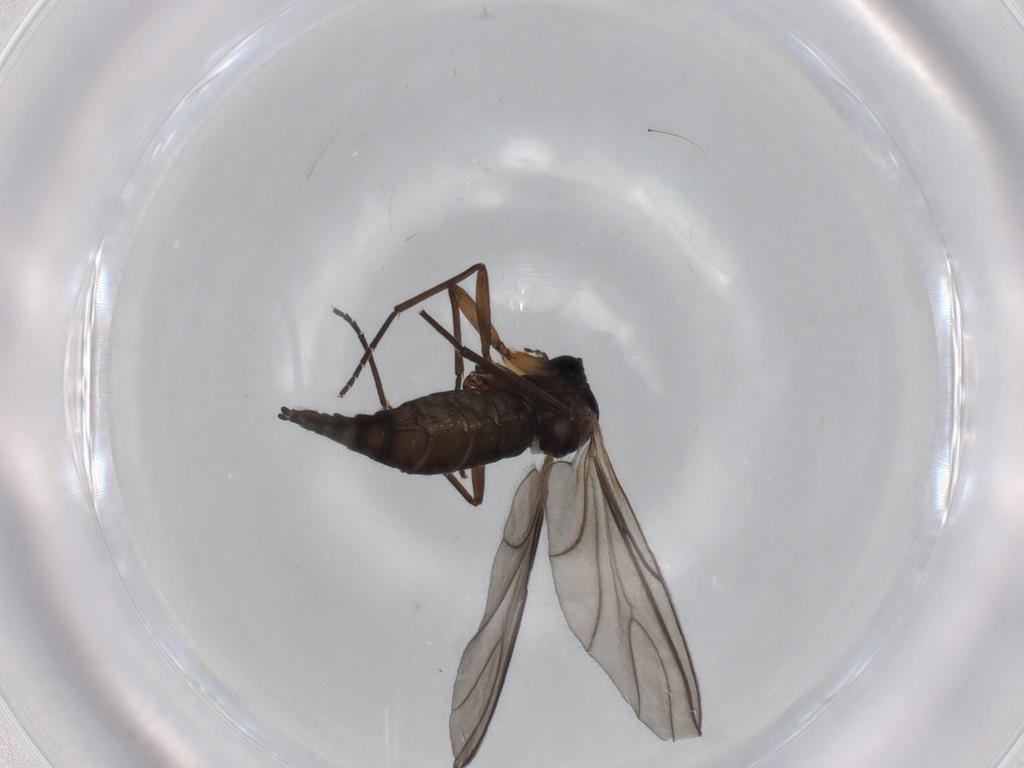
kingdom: Animalia
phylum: Arthropoda
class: Insecta
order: Diptera
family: Sciaridae
